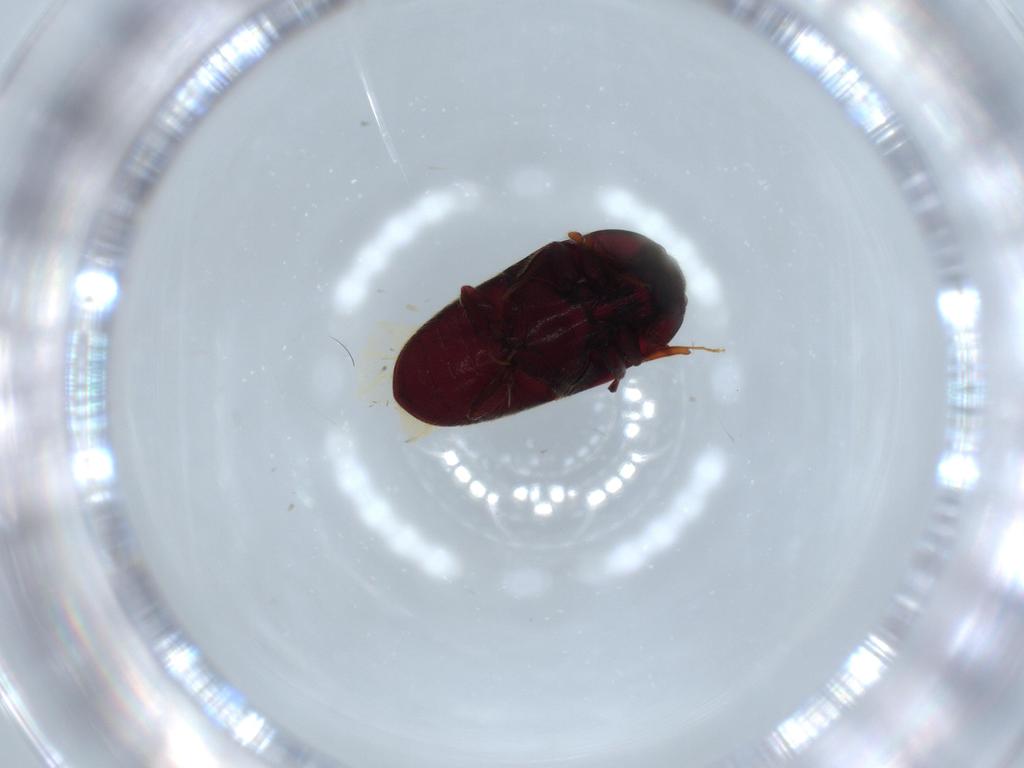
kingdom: Animalia
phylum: Arthropoda
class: Insecta
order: Coleoptera
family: Throscidae
